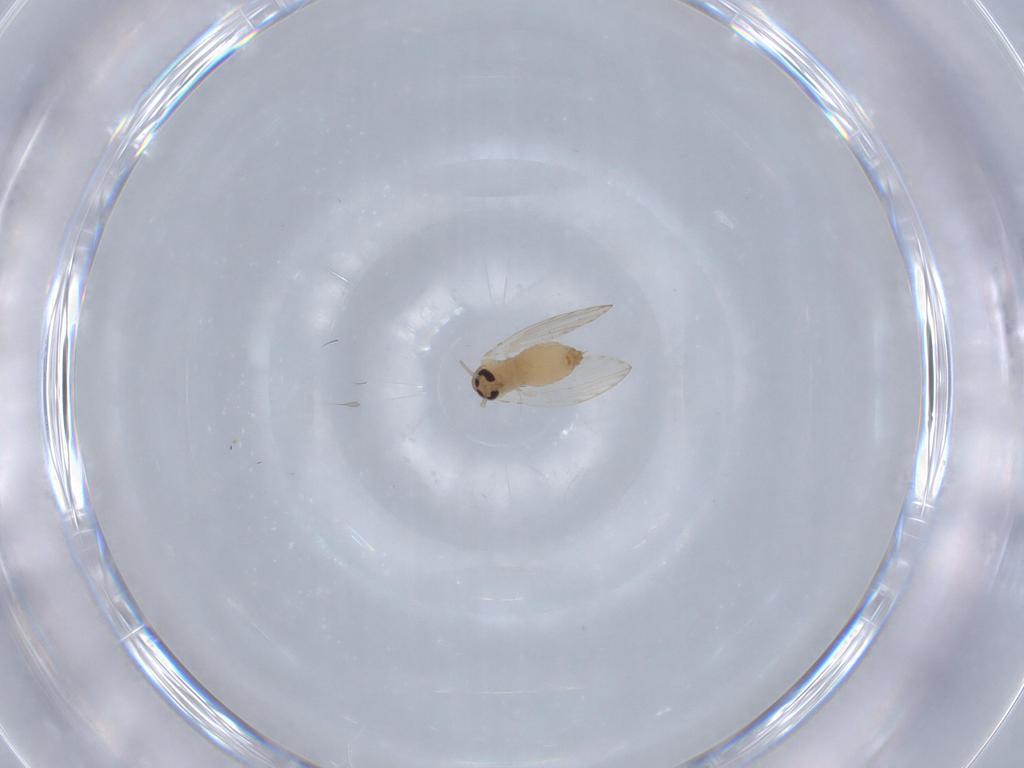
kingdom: Animalia
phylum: Arthropoda
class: Insecta
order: Diptera
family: Psychodidae
